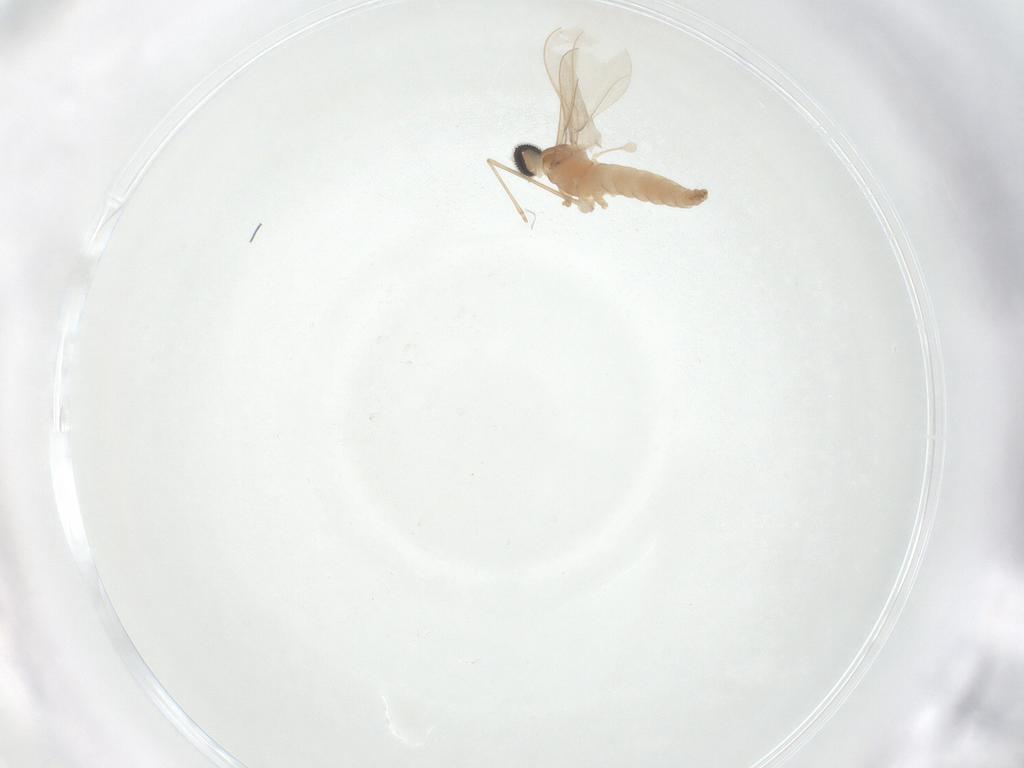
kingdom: Animalia
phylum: Arthropoda
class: Insecta
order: Diptera
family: Cecidomyiidae
